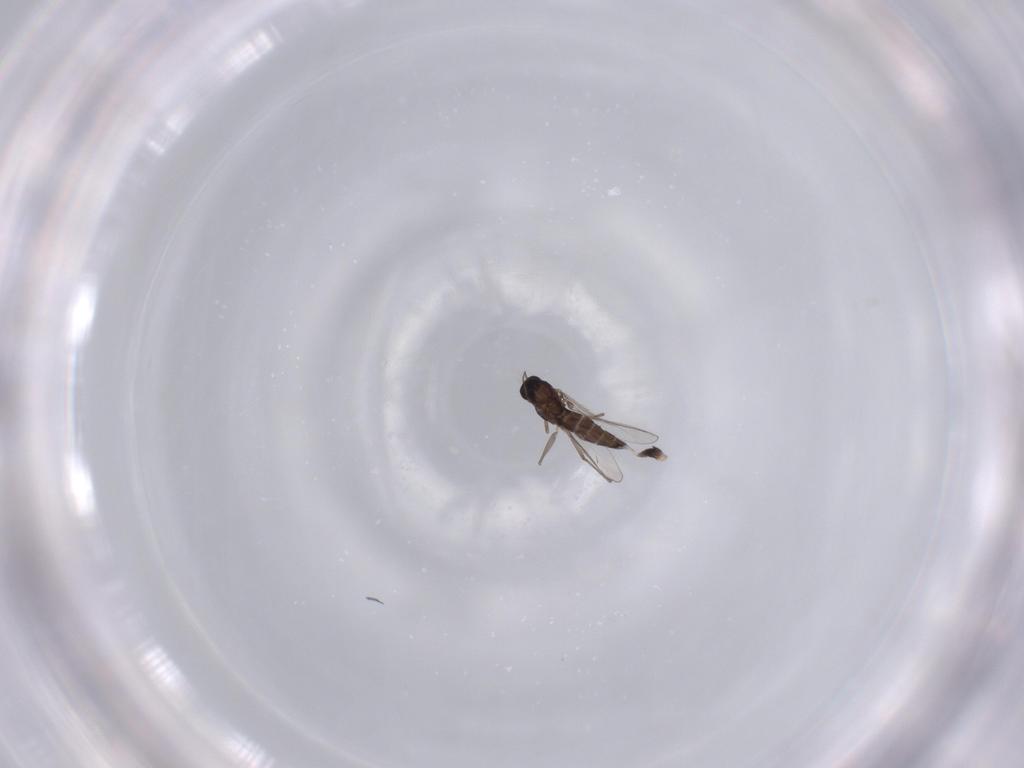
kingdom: Animalia
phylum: Arthropoda
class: Insecta
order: Diptera
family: Chironomidae
